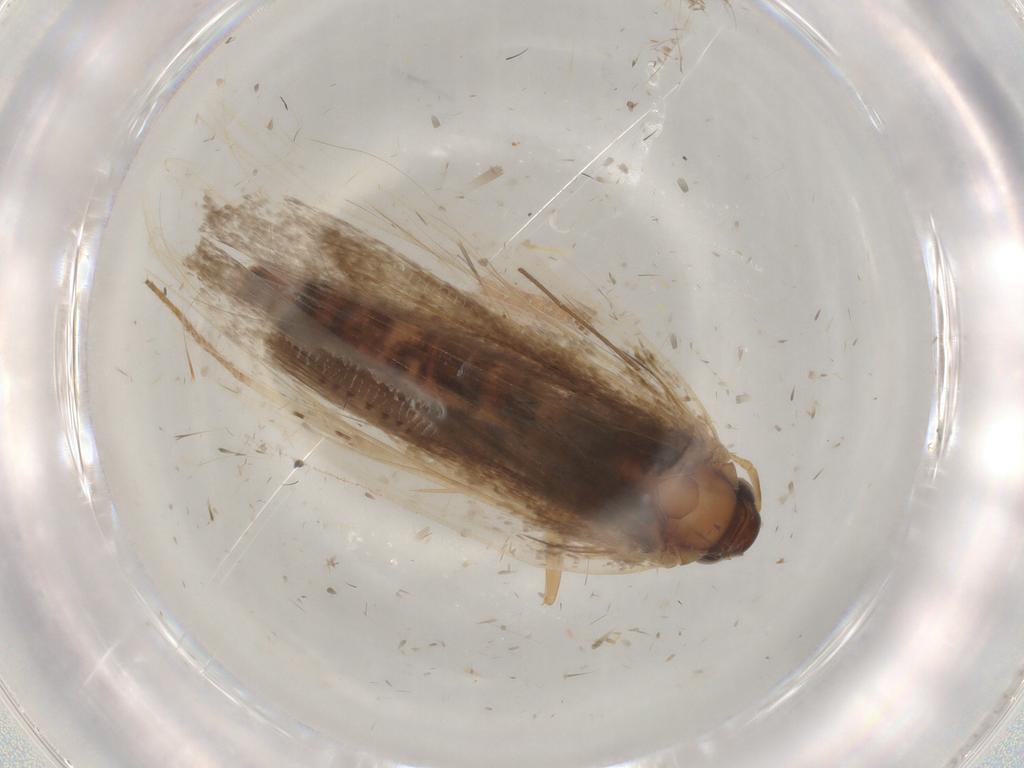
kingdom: Animalia
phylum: Arthropoda
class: Insecta
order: Lepidoptera
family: Gelechiidae
